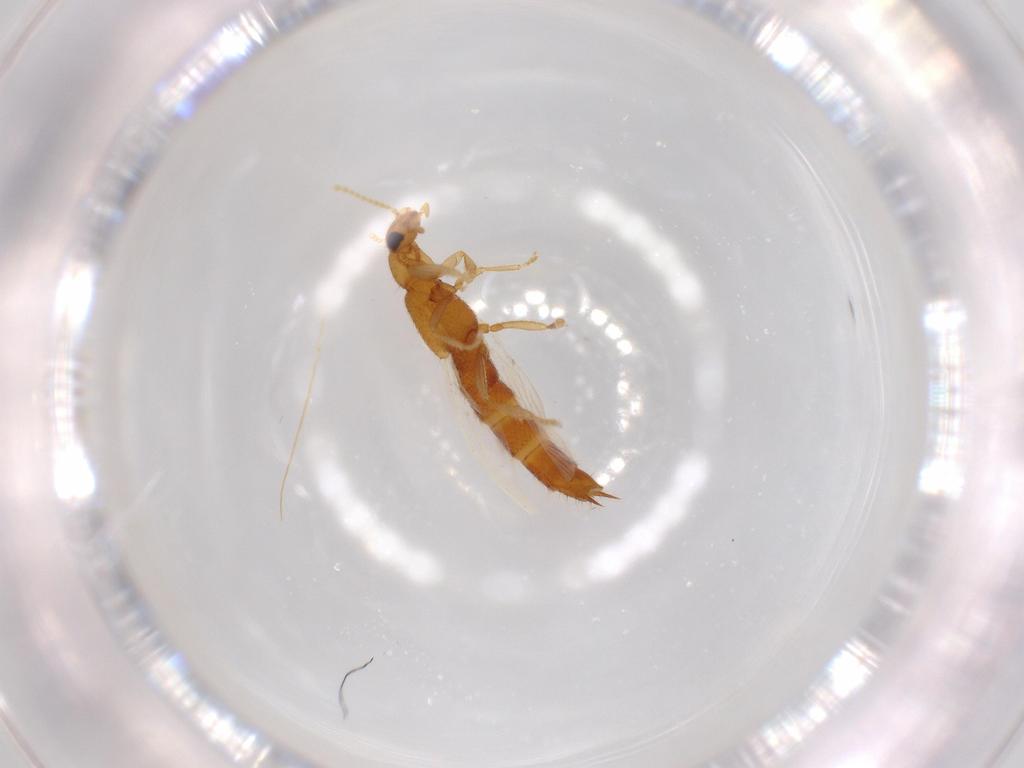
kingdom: Animalia
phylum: Arthropoda
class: Insecta
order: Coleoptera
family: Staphylinidae
